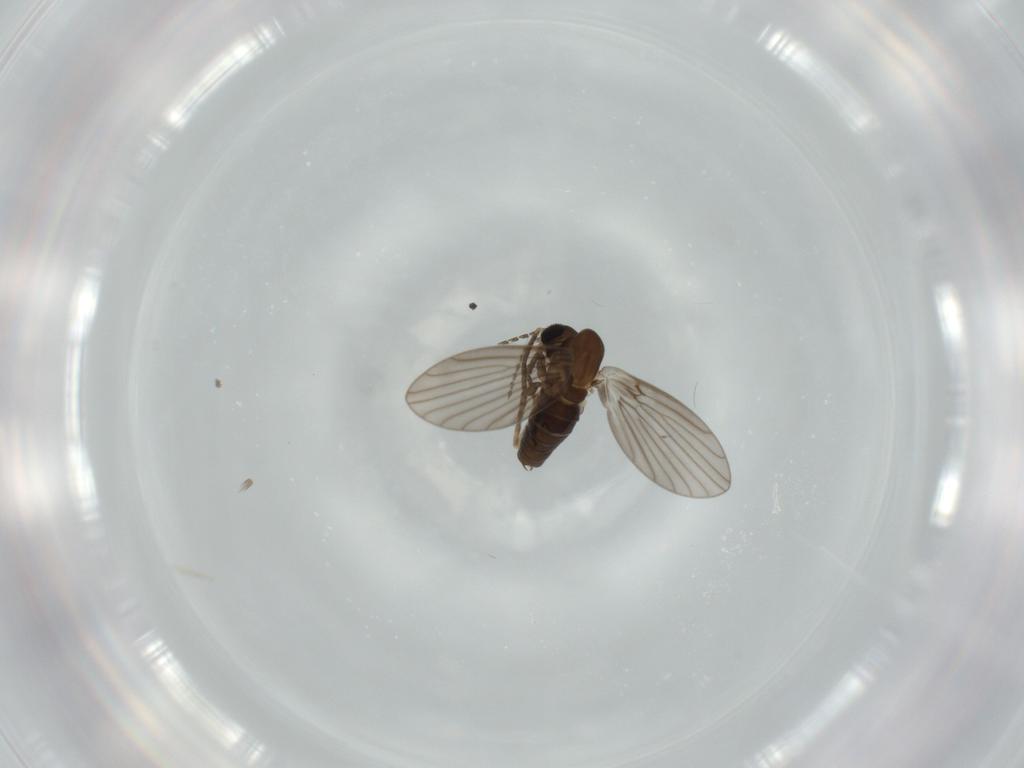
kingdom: Animalia
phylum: Arthropoda
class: Insecta
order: Diptera
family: Psychodidae
